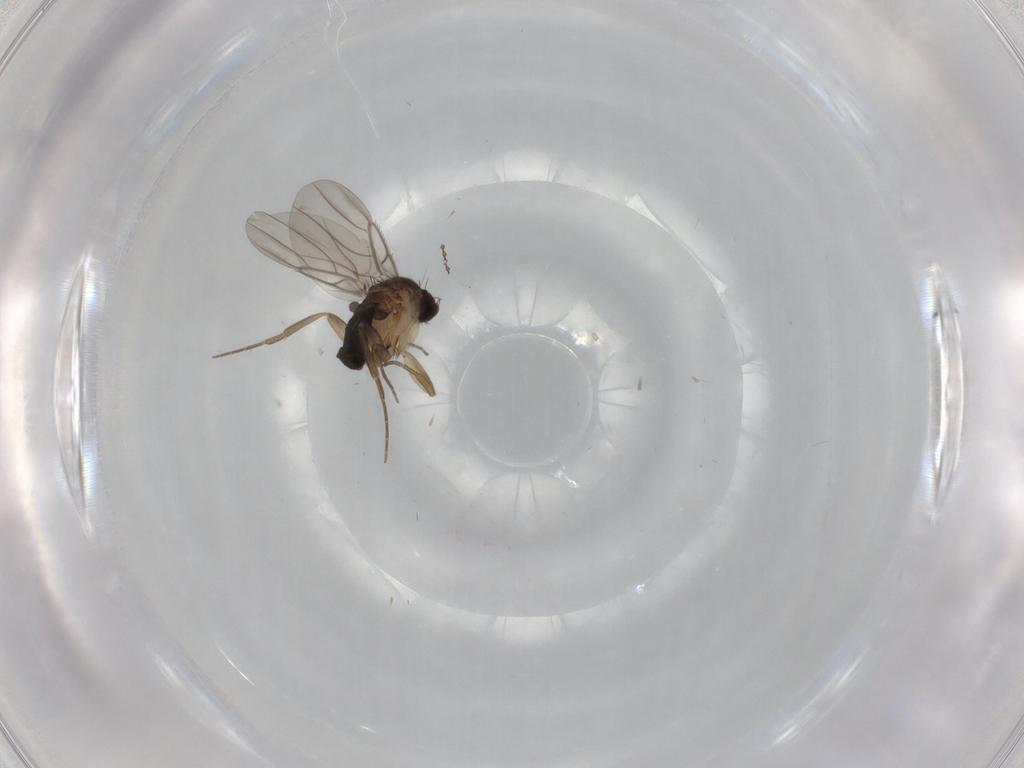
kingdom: Animalia
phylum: Arthropoda
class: Insecta
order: Diptera
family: Cecidomyiidae
